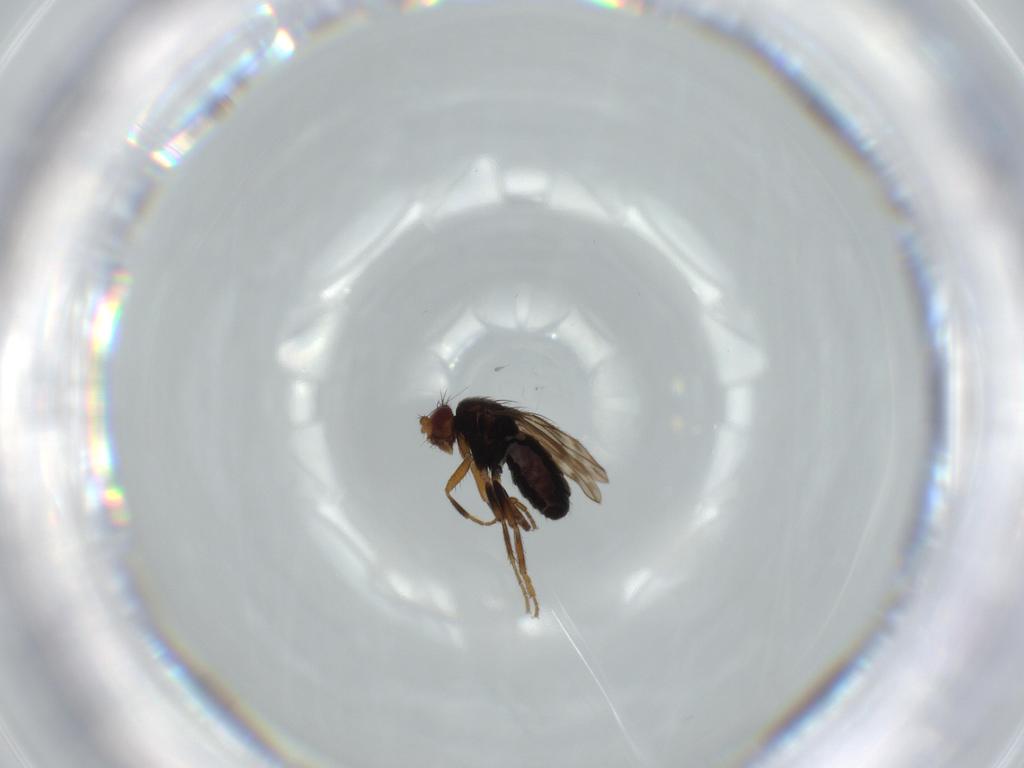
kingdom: Animalia
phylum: Arthropoda
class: Insecta
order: Diptera
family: Sphaeroceridae
